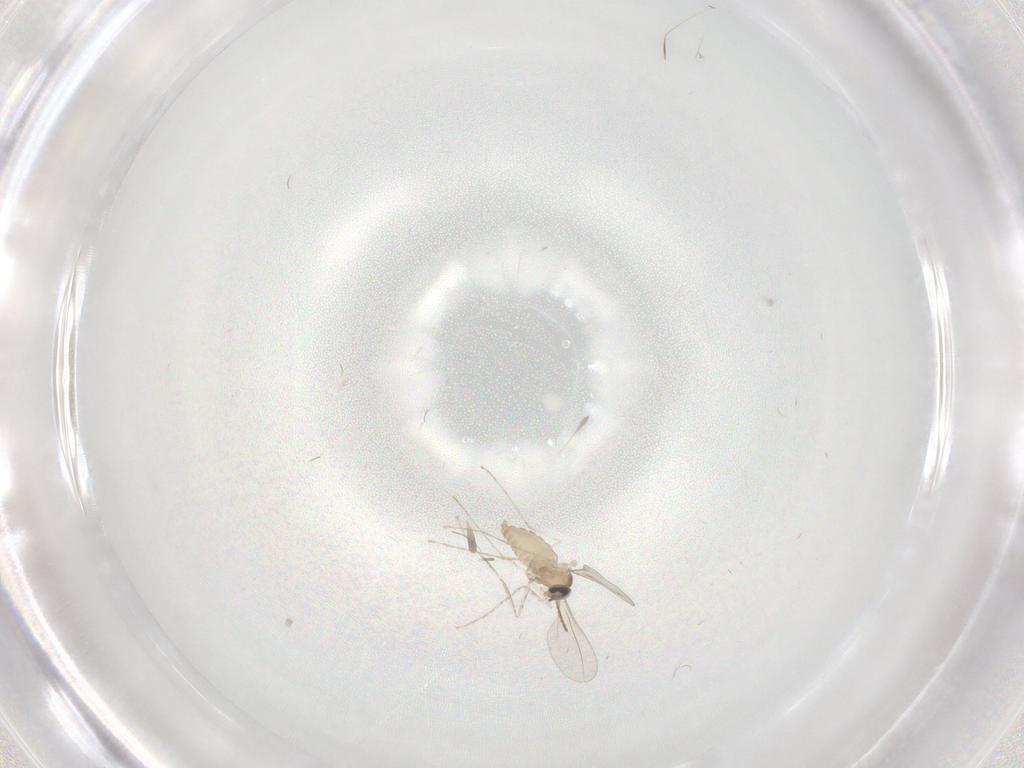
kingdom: Animalia
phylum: Arthropoda
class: Insecta
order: Diptera
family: Cecidomyiidae
